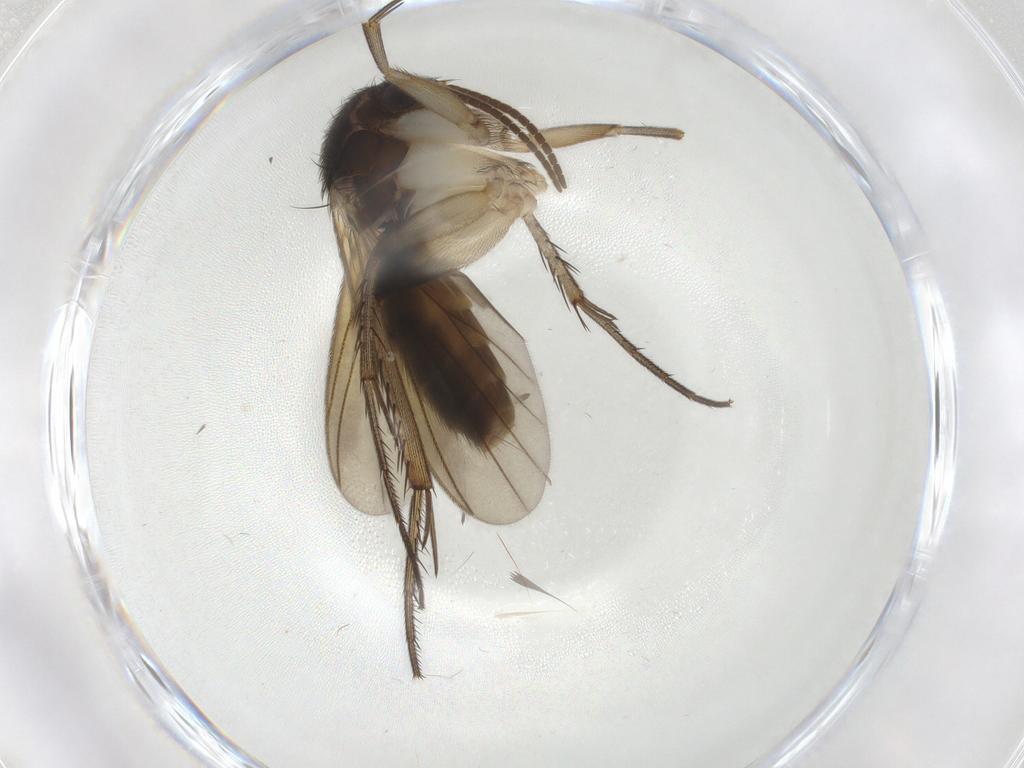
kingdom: Animalia
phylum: Arthropoda
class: Insecta
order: Diptera
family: Mycetophilidae
